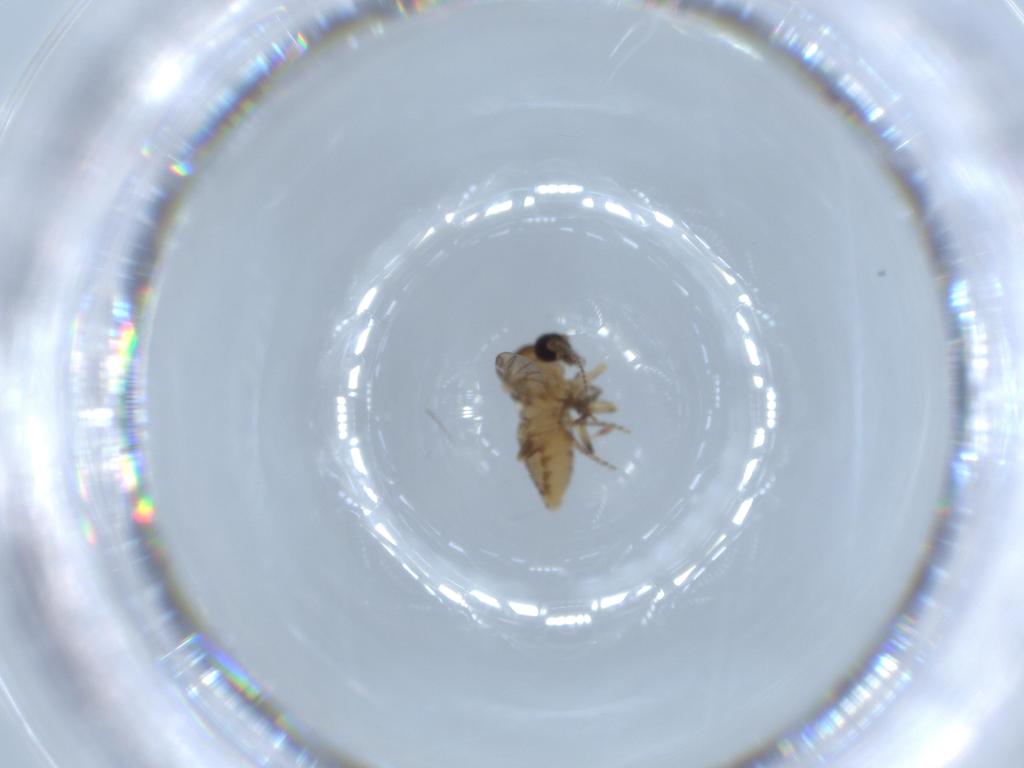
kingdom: Animalia
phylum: Arthropoda
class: Insecta
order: Diptera
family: Ceratopogonidae
